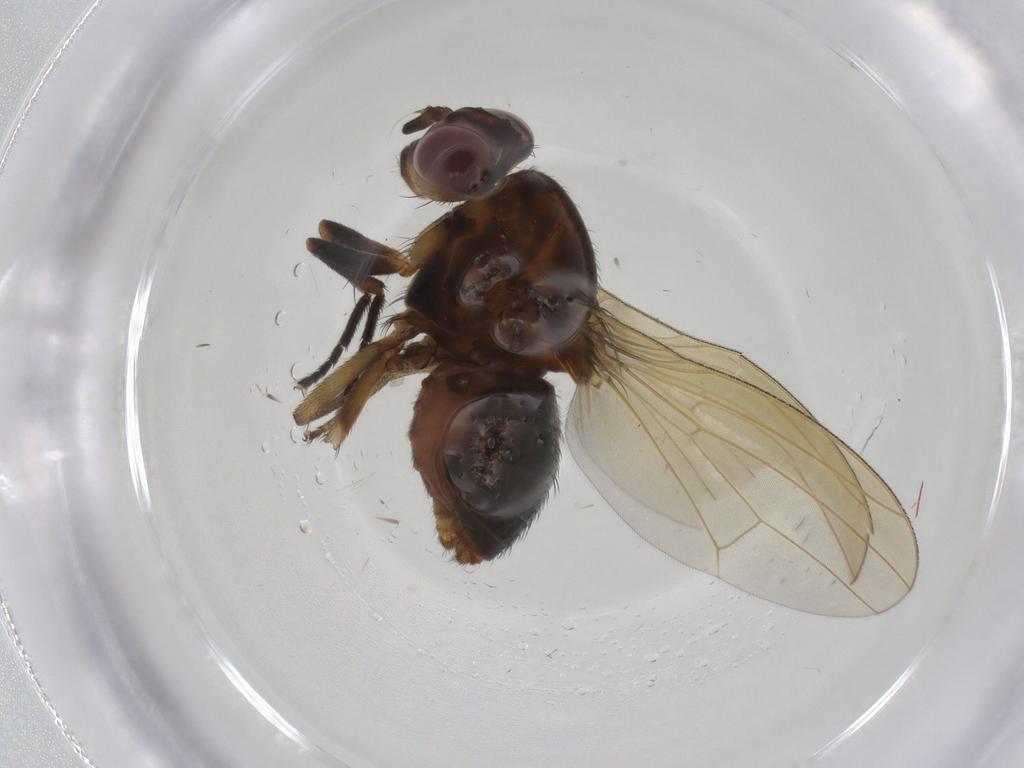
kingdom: Animalia
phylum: Arthropoda
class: Insecta
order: Diptera
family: Lauxaniidae
